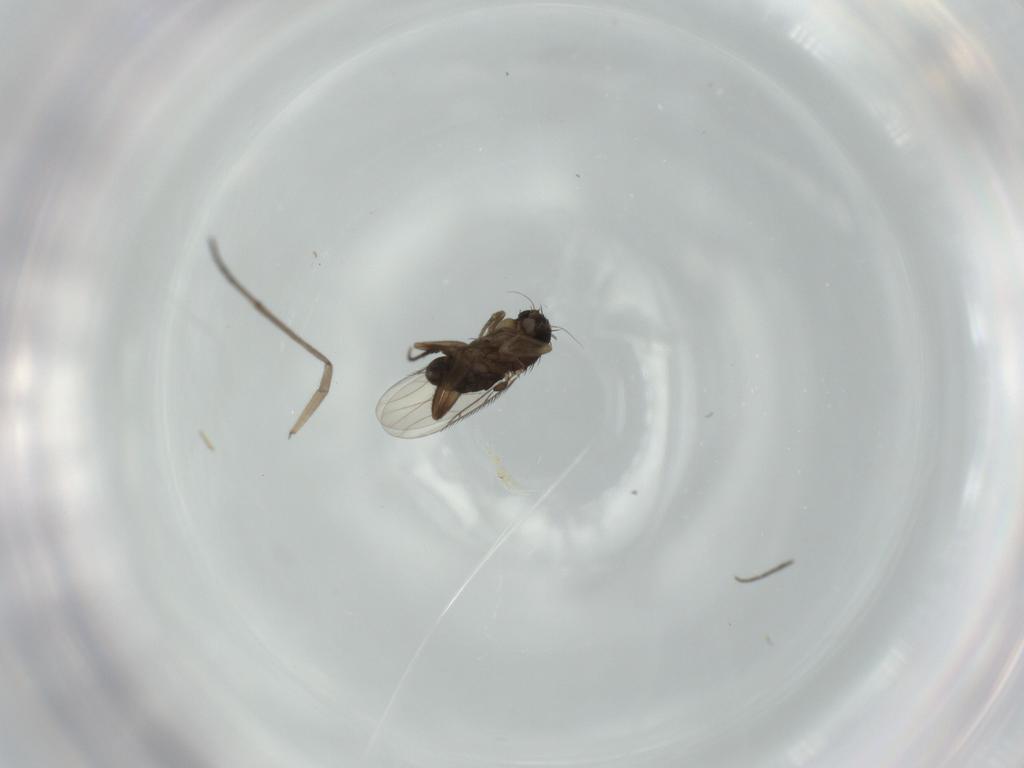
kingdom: Animalia
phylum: Arthropoda
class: Insecta
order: Diptera
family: Phoridae
